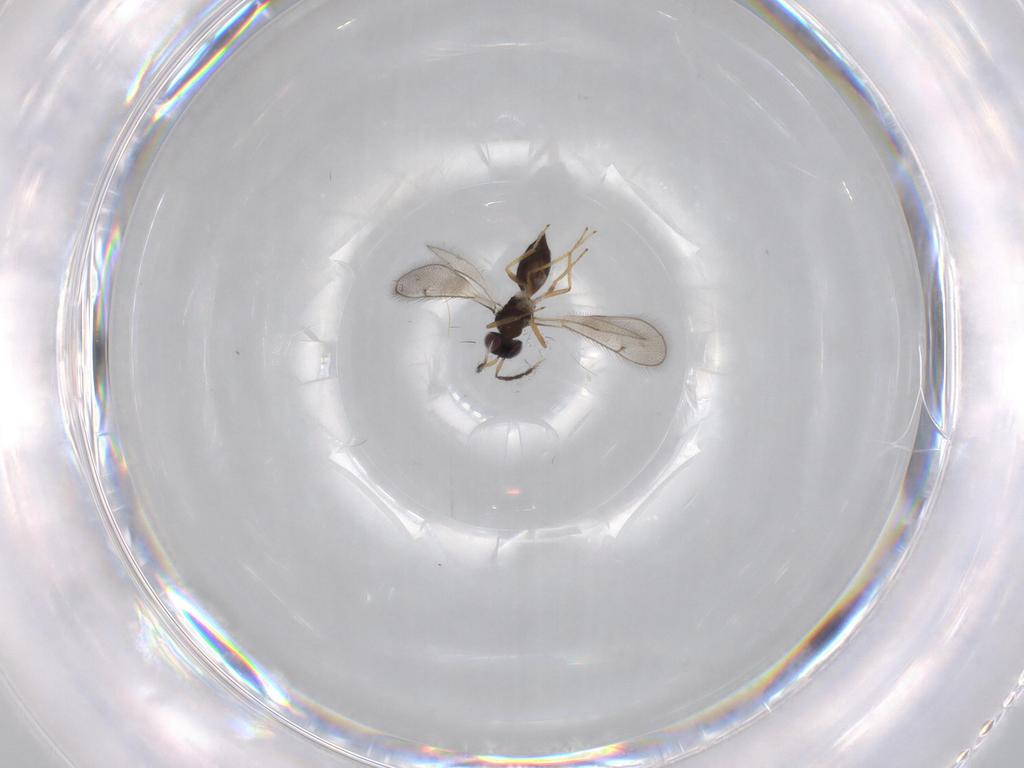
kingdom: Animalia
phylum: Arthropoda
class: Insecta
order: Hymenoptera
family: Eulophidae
